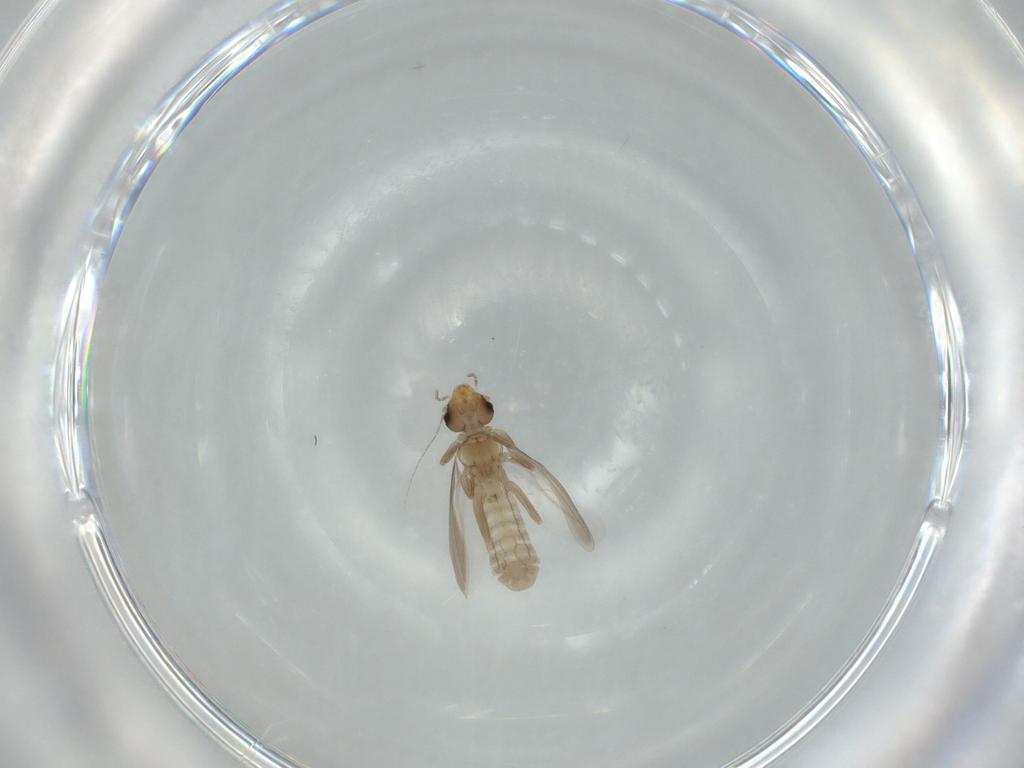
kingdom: Animalia
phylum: Arthropoda
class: Insecta
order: Psocodea
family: Liposcelididae
